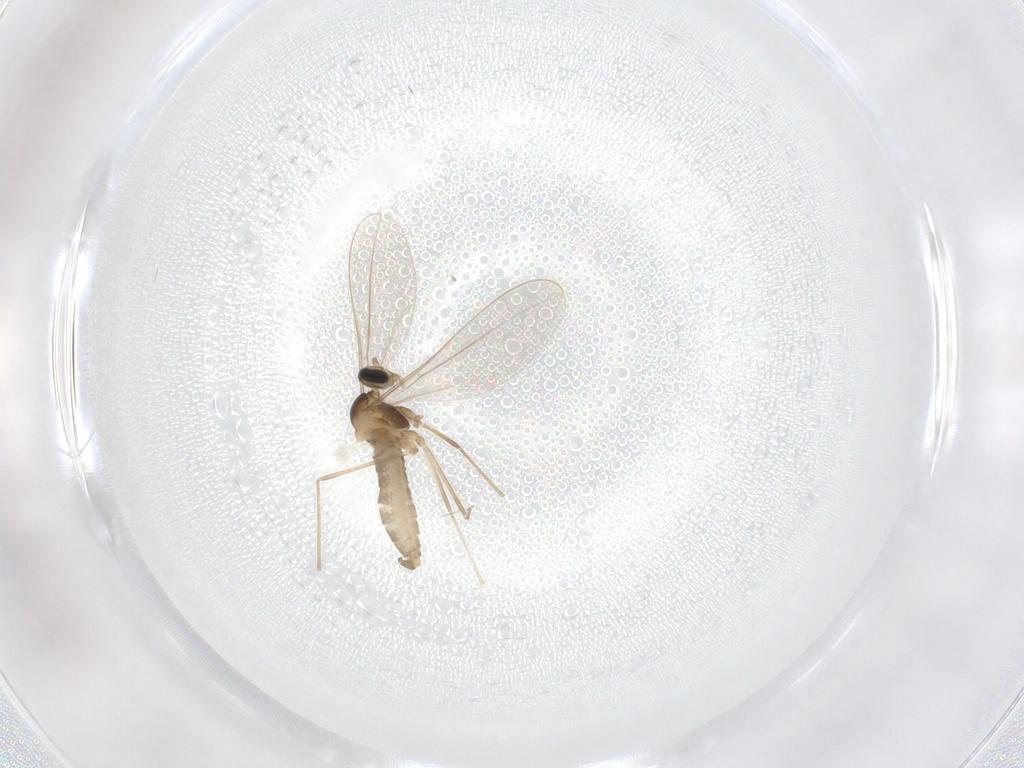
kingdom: Animalia
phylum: Arthropoda
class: Insecta
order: Diptera
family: Cecidomyiidae
